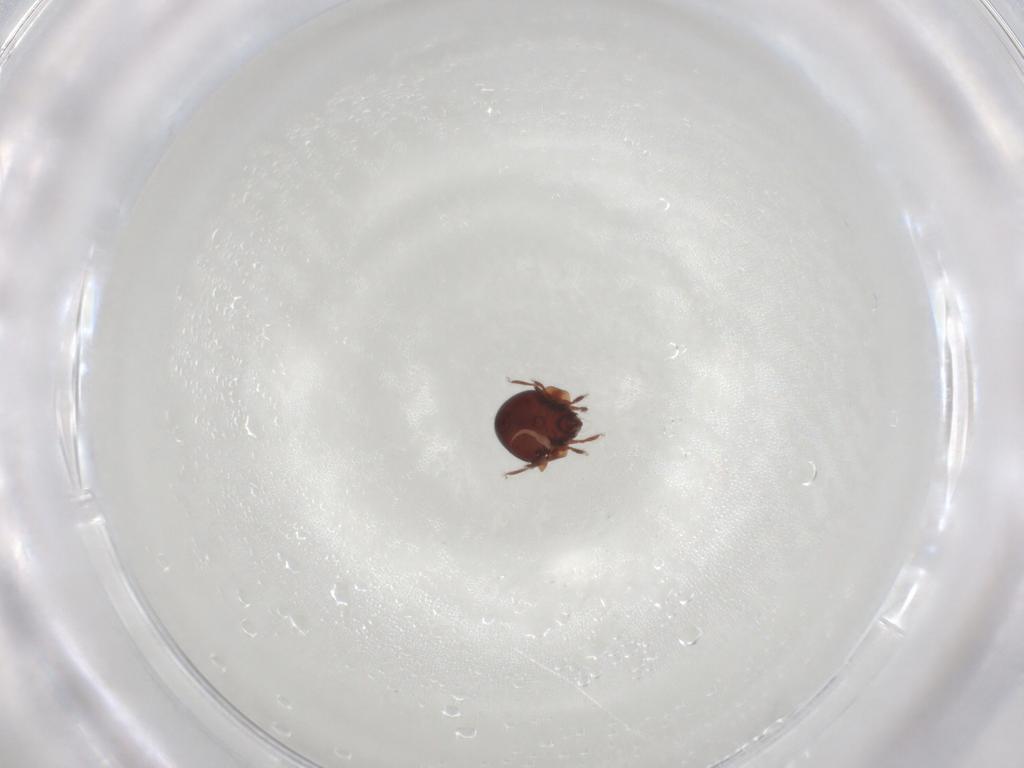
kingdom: Animalia
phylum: Arthropoda
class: Arachnida
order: Sarcoptiformes
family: Humerobatidae
